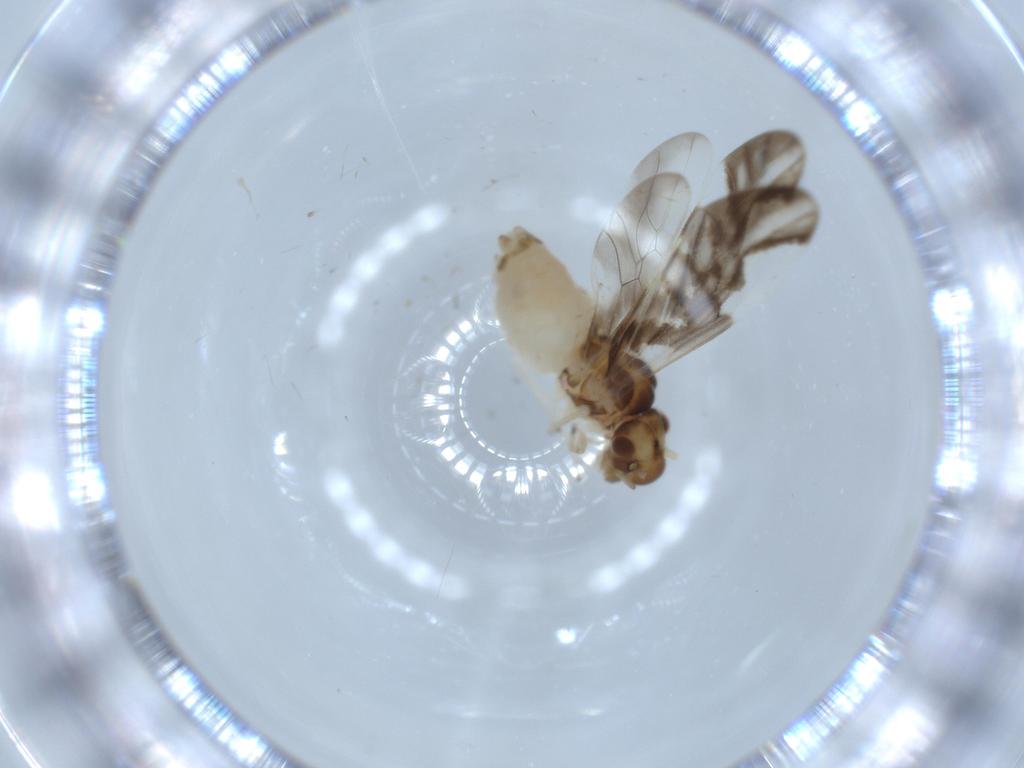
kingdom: Animalia
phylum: Arthropoda
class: Insecta
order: Psocodea
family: Caeciliusidae
